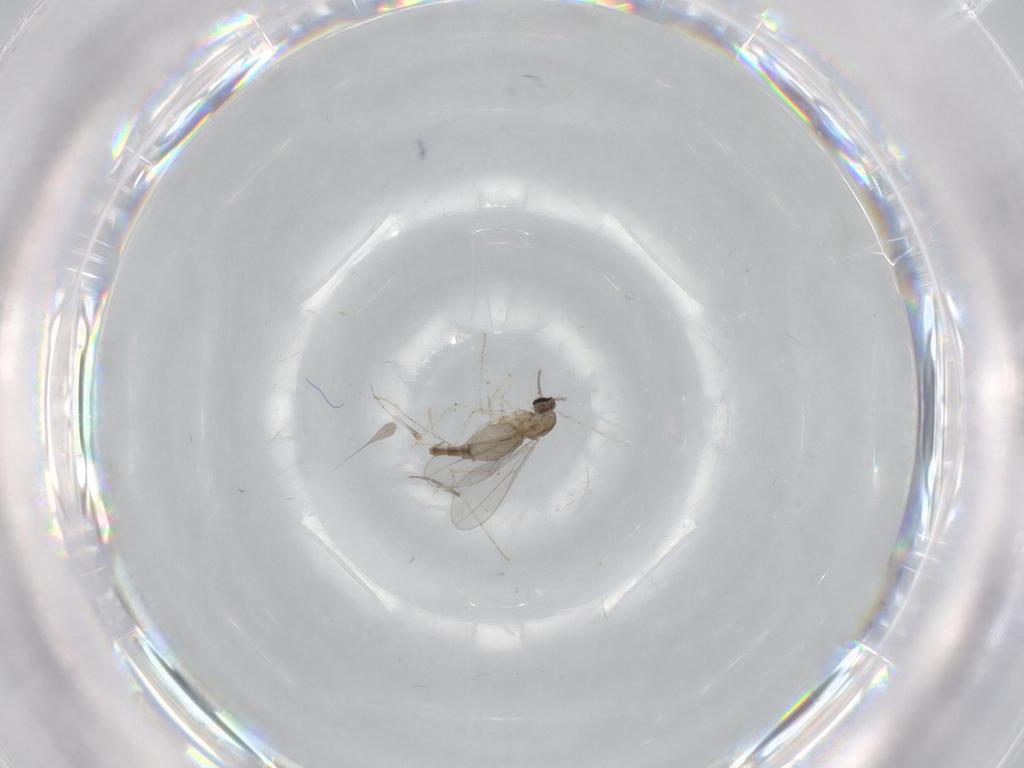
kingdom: Animalia
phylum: Arthropoda
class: Insecta
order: Diptera
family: Cecidomyiidae
